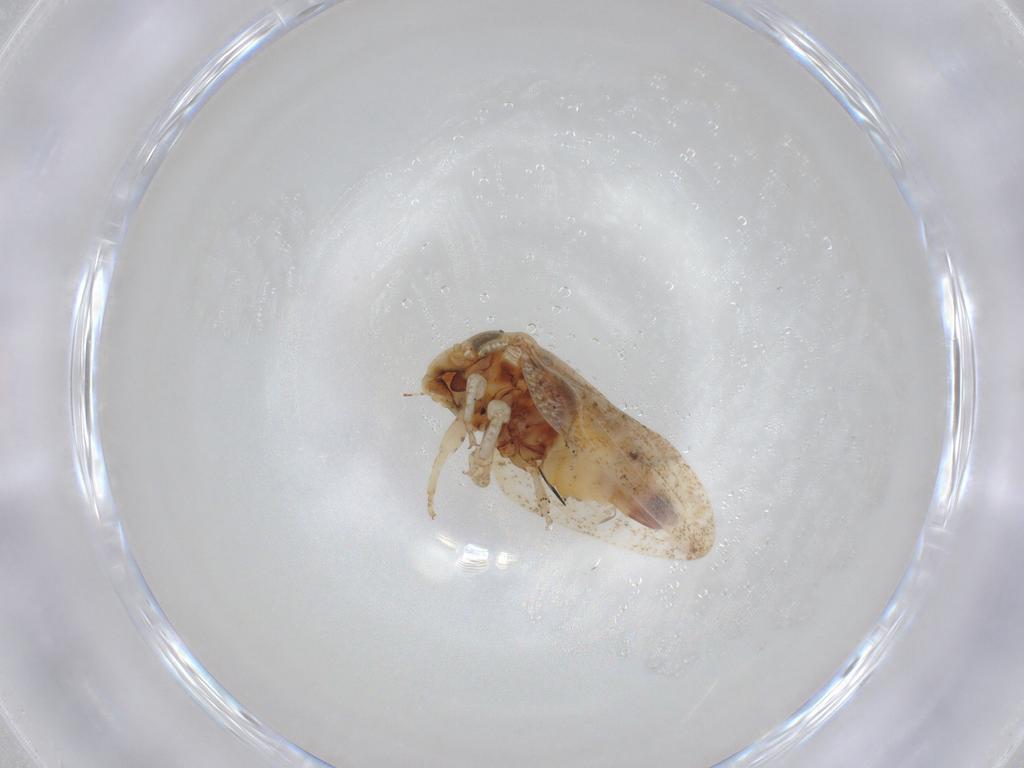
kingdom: Animalia
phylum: Arthropoda
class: Insecta
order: Diptera
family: Therevidae
